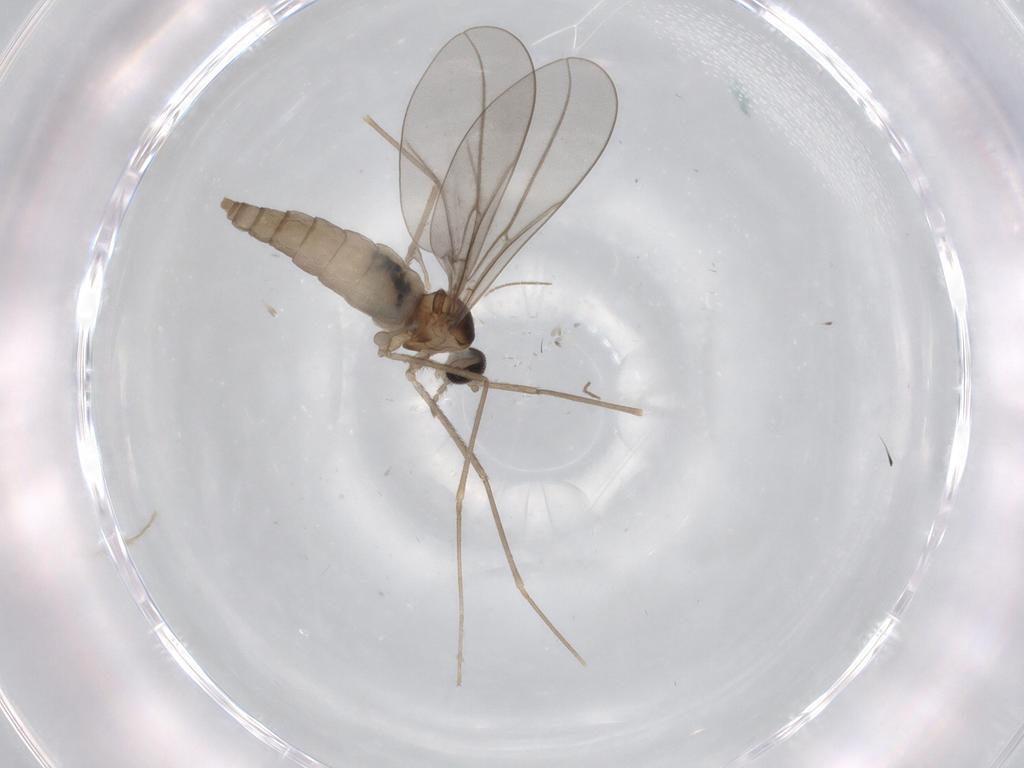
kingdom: Animalia
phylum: Arthropoda
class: Insecta
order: Diptera
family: Cecidomyiidae
